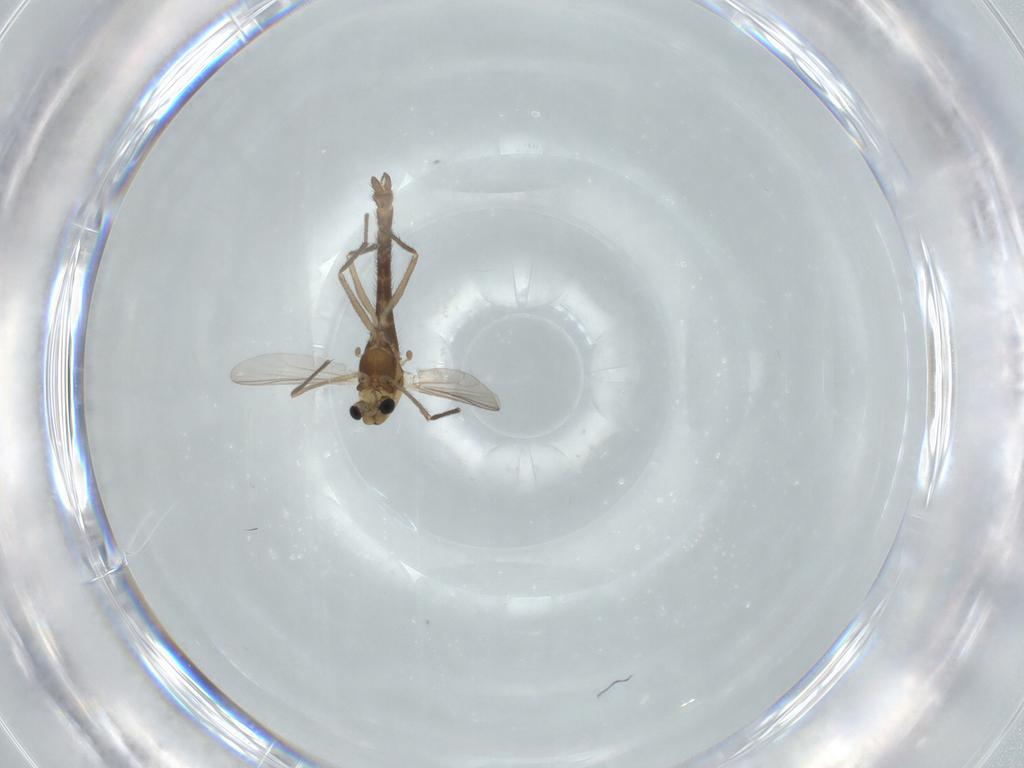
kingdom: Animalia
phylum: Arthropoda
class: Insecta
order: Diptera
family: Chironomidae
